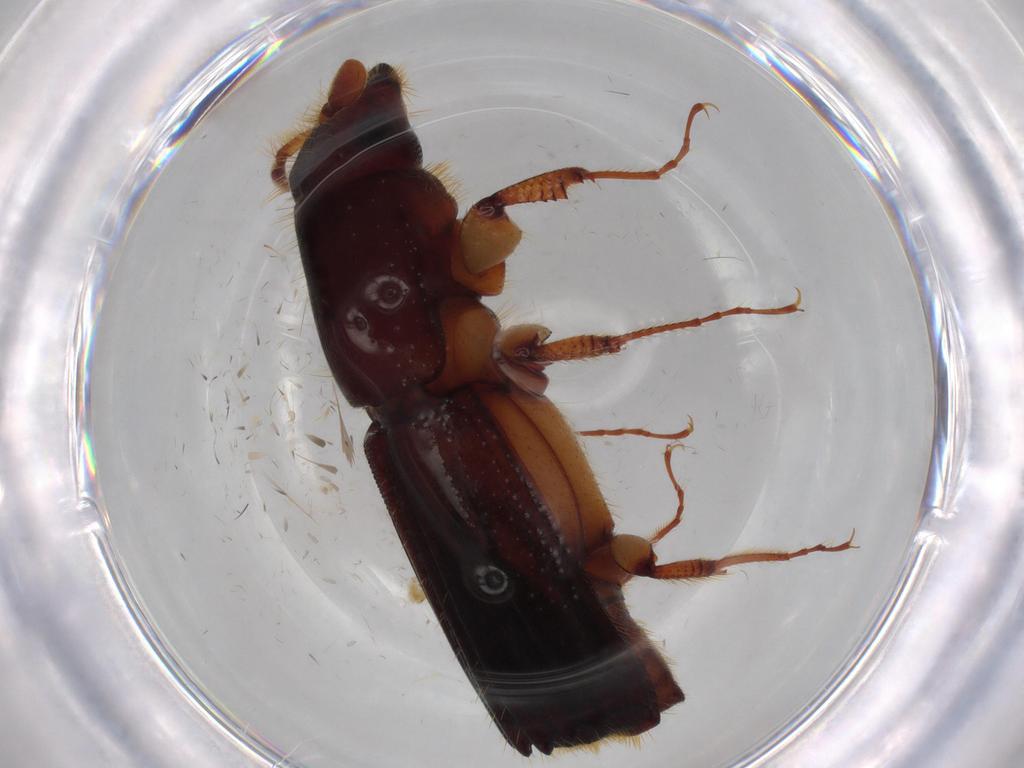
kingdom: Animalia
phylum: Arthropoda
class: Insecta
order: Coleoptera
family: Curculionidae
